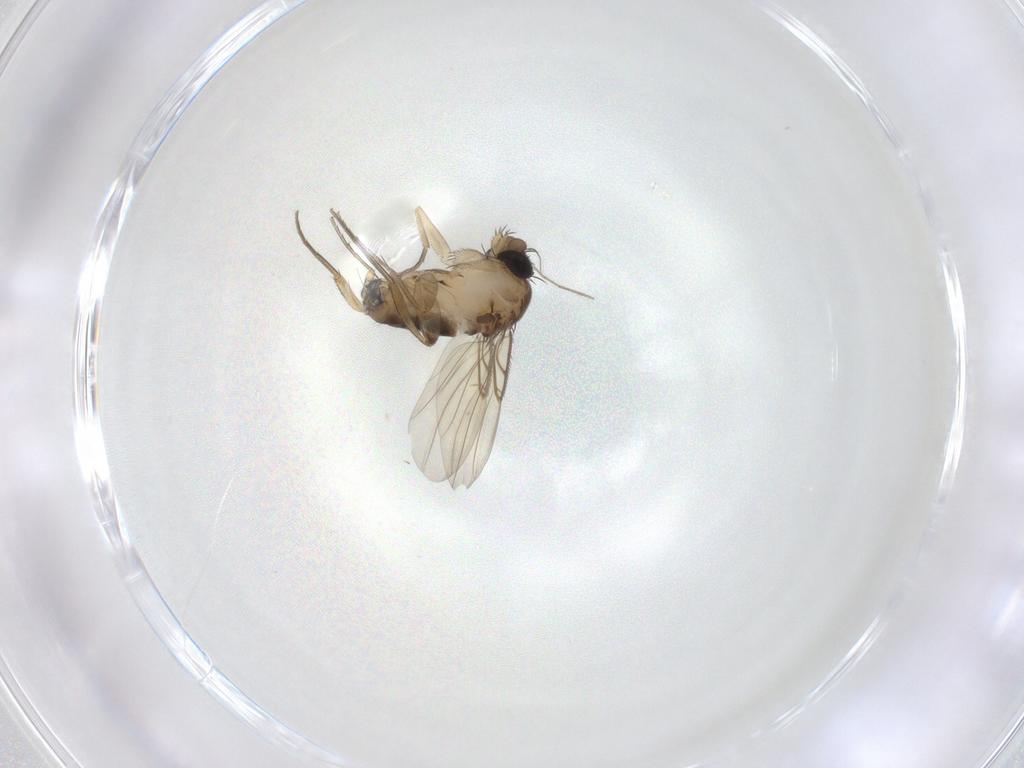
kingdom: Animalia
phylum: Arthropoda
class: Insecta
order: Diptera
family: Phoridae
